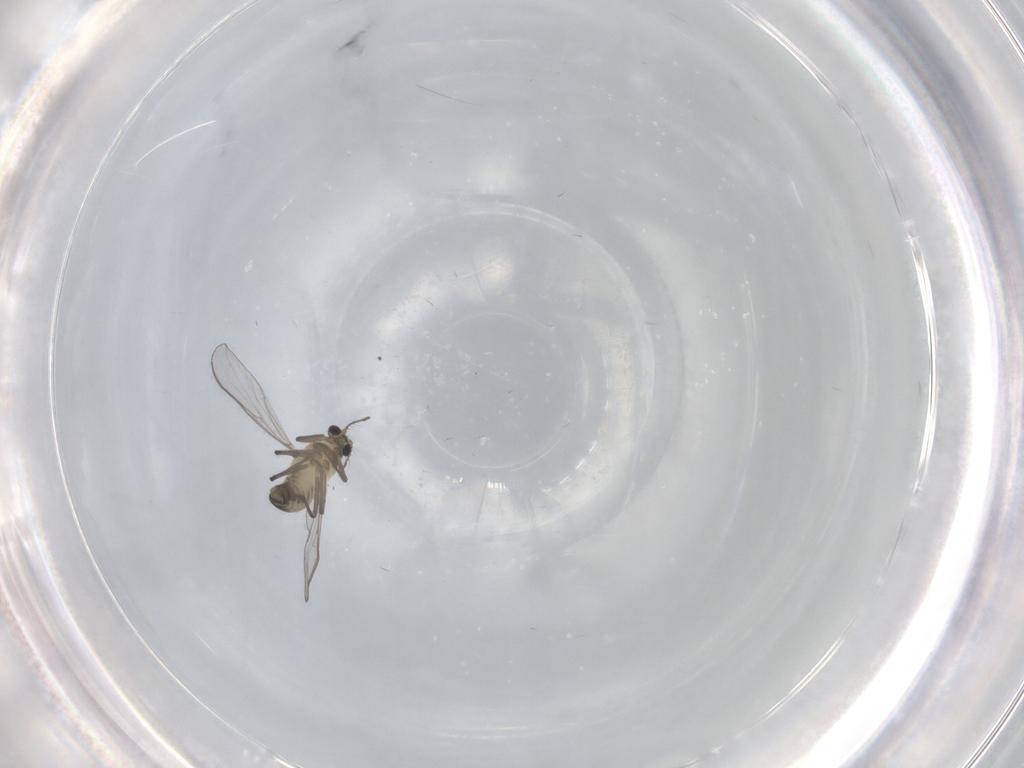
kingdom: Animalia
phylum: Arthropoda
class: Insecta
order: Diptera
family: Chironomidae
